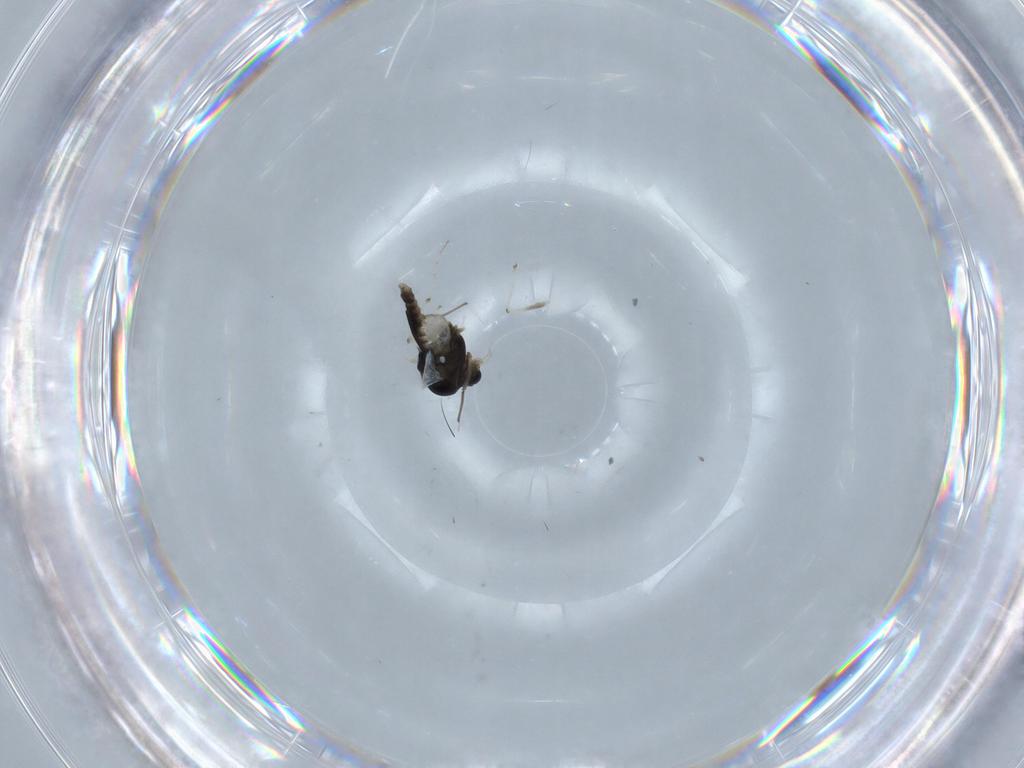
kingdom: Animalia
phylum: Arthropoda
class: Insecta
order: Diptera
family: Chironomidae
